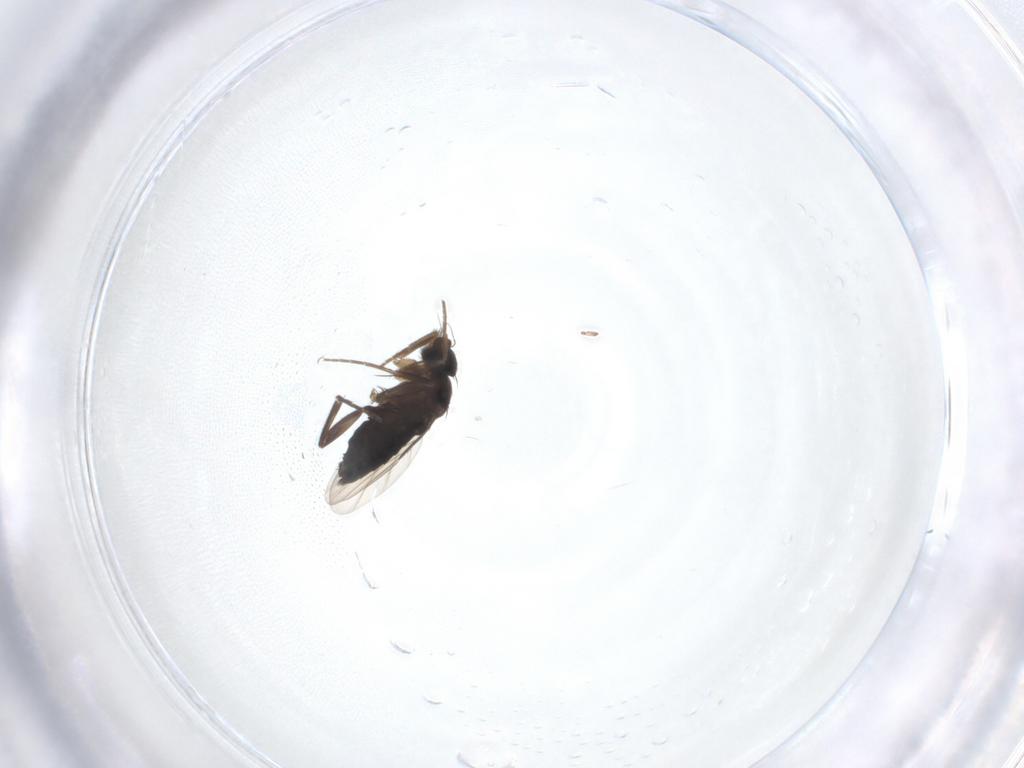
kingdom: Animalia
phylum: Arthropoda
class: Insecta
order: Diptera
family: Phoridae
